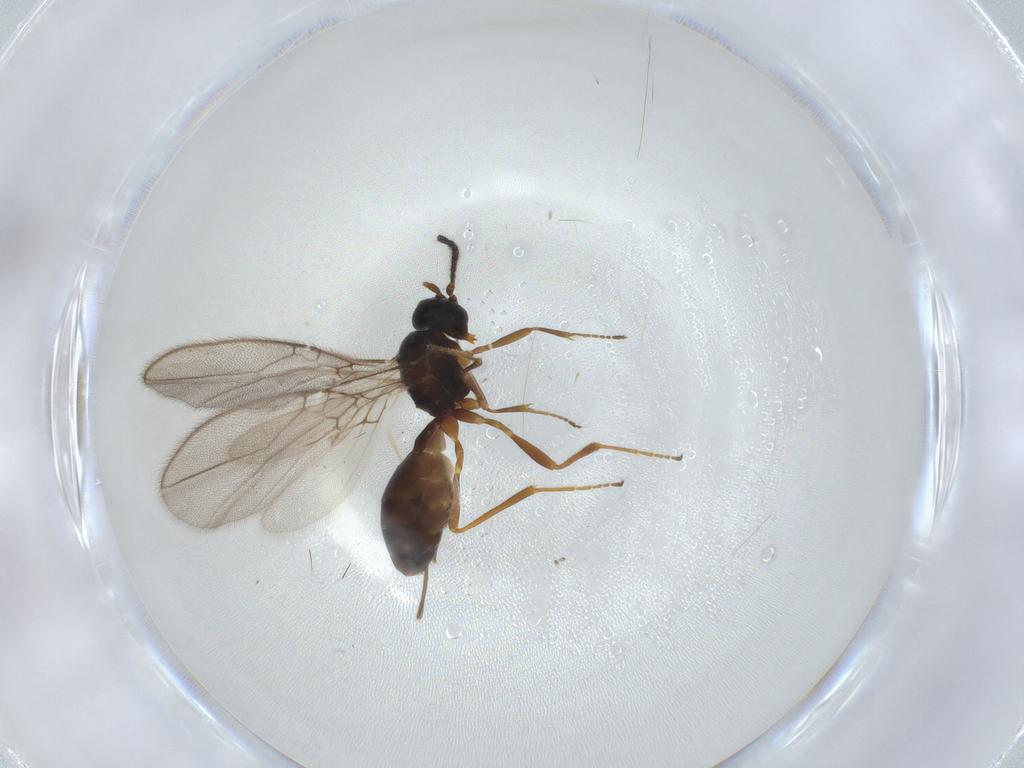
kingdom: Animalia
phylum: Arthropoda
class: Insecta
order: Hymenoptera
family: Braconidae
